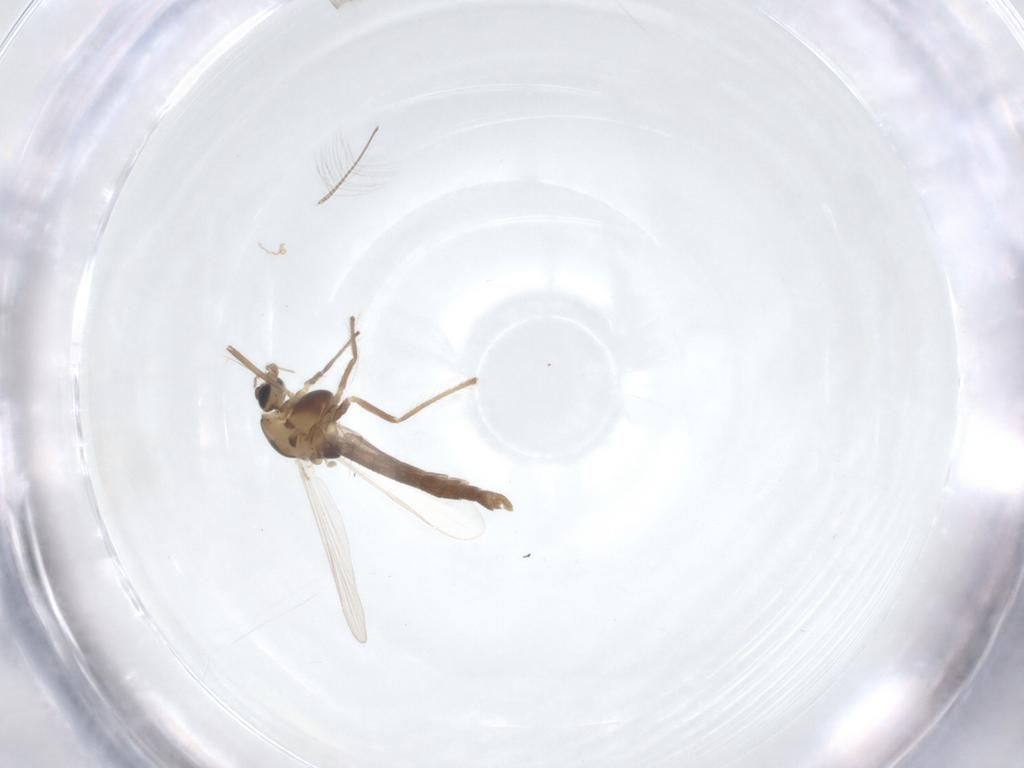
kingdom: Animalia
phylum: Arthropoda
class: Insecta
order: Diptera
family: Chironomidae
